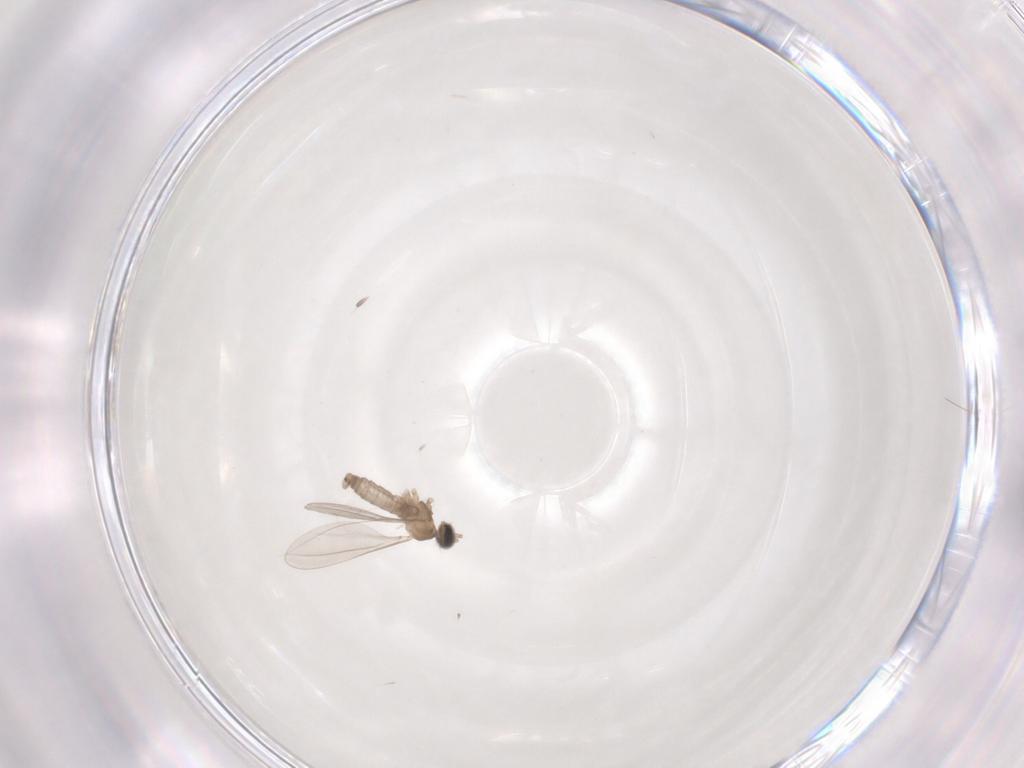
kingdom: Animalia
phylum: Arthropoda
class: Insecta
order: Diptera
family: Cecidomyiidae
